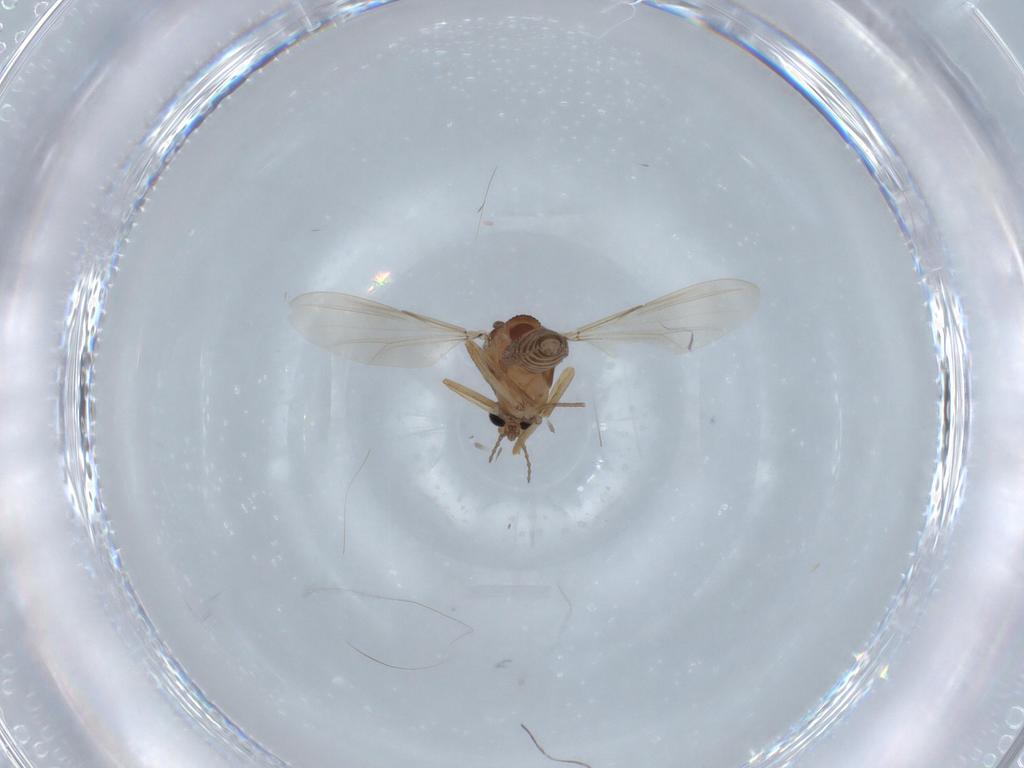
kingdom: Animalia
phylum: Arthropoda
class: Insecta
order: Diptera
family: Ceratopogonidae
